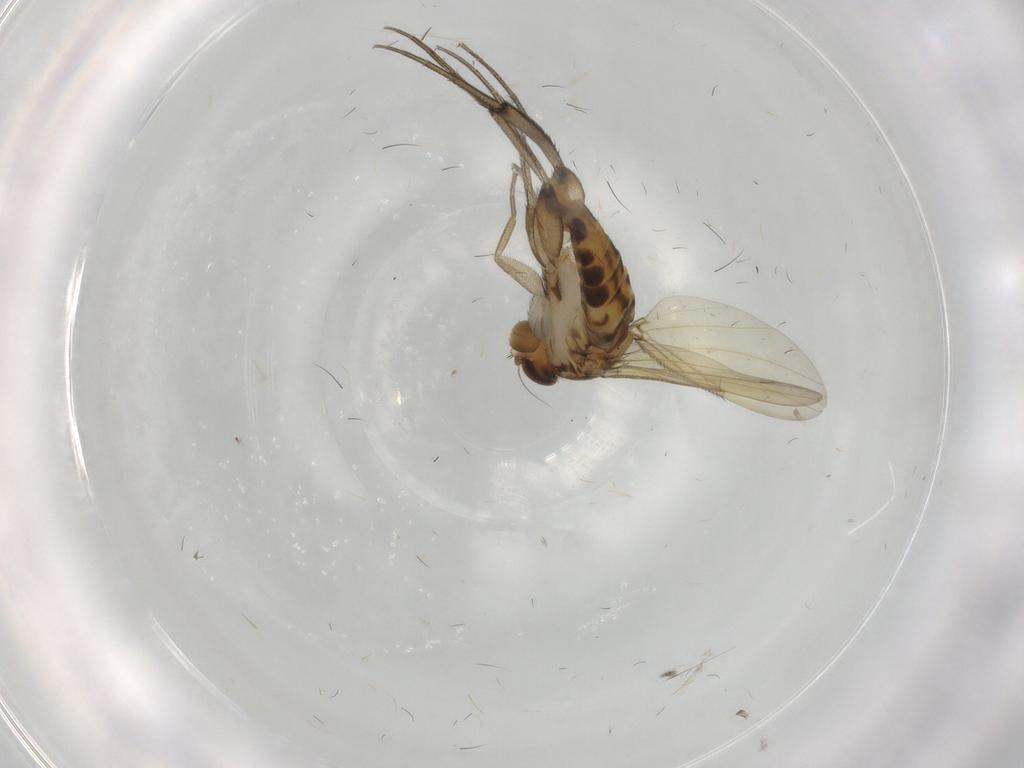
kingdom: Animalia
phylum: Arthropoda
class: Insecta
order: Diptera
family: Phoridae
